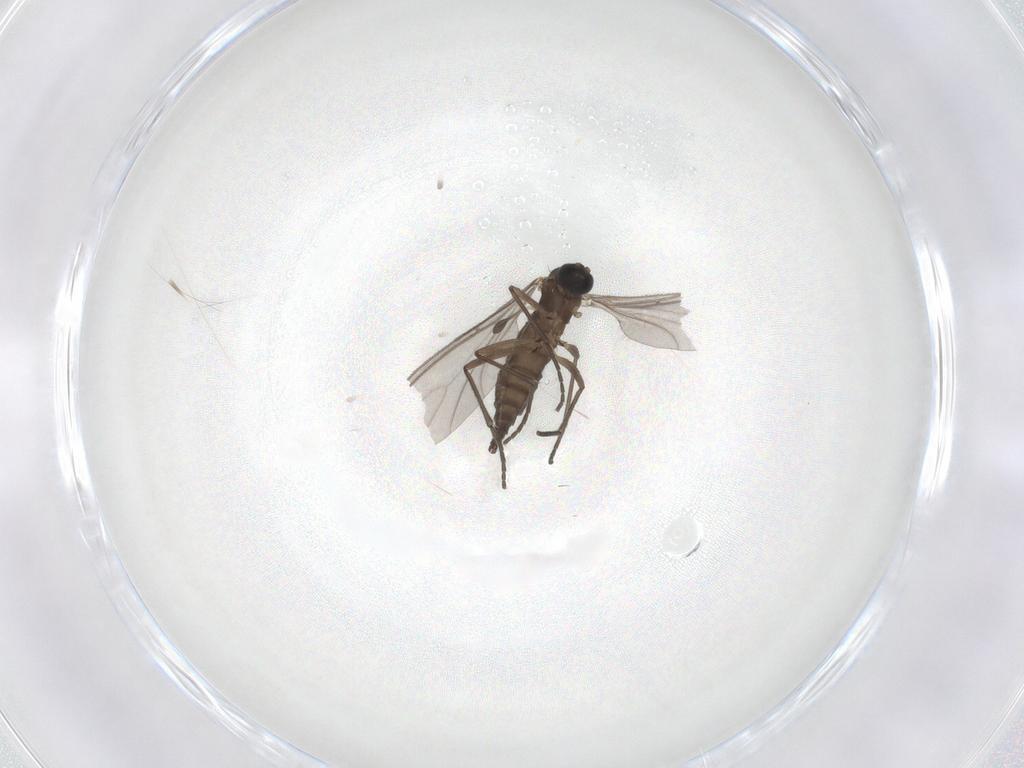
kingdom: Animalia
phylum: Arthropoda
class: Insecta
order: Diptera
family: Sciaridae
